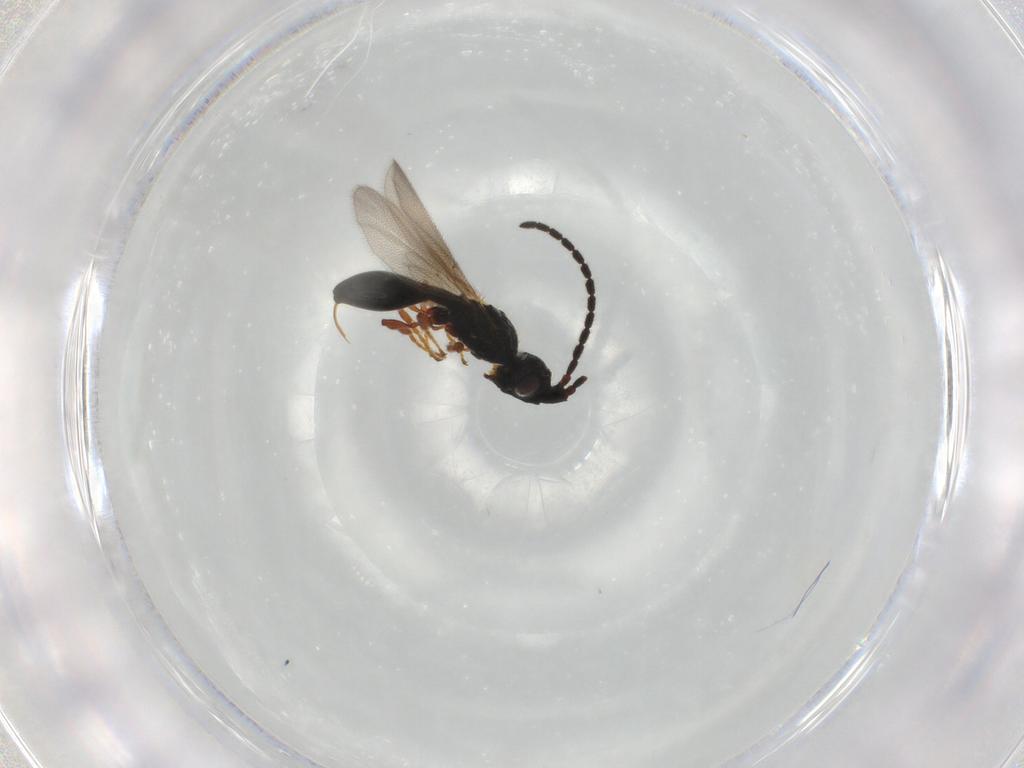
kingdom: Animalia
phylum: Arthropoda
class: Insecta
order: Hymenoptera
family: Diapriidae
